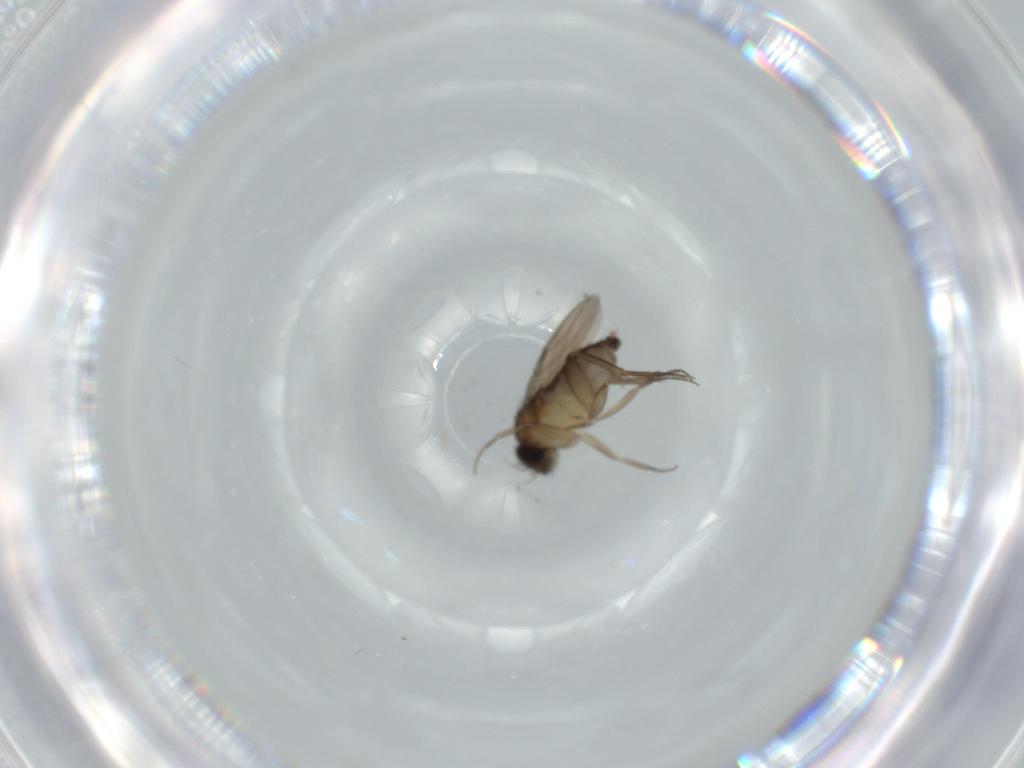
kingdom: Animalia
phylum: Arthropoda
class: Insecta
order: Diptera
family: Phoridae
